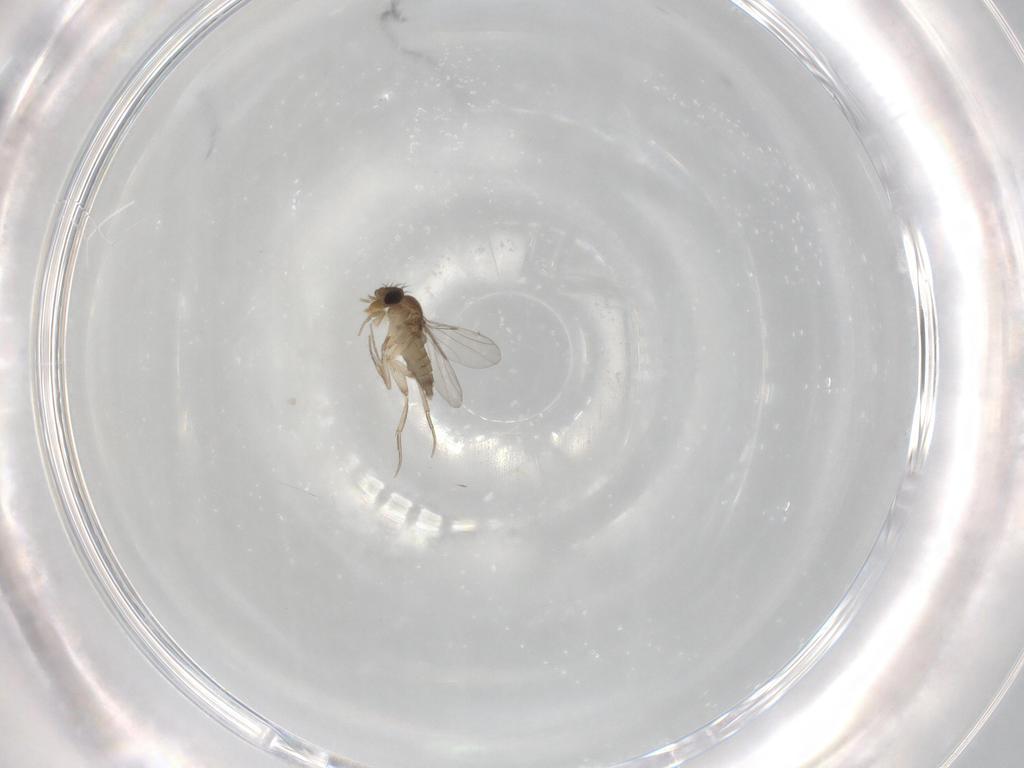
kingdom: Animalia
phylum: Arthropoda
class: Insecta
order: Diptera
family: Phoridae
